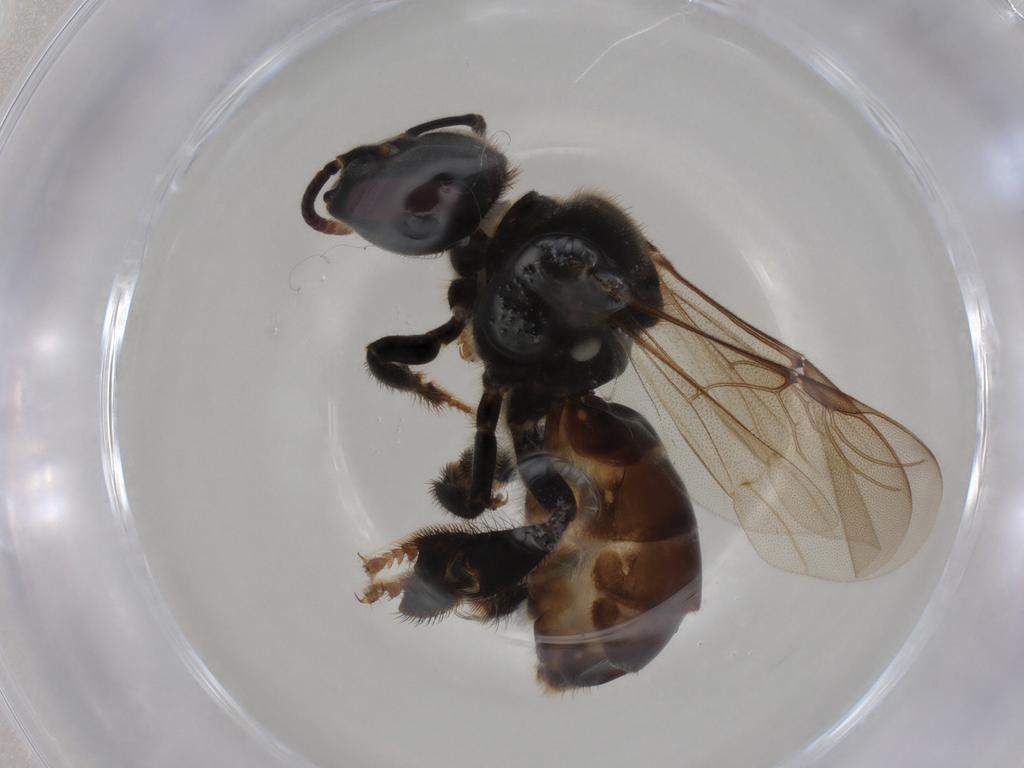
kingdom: Animalia
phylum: Arthropoda
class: Insecta
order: Hymenoptera
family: Apidae
